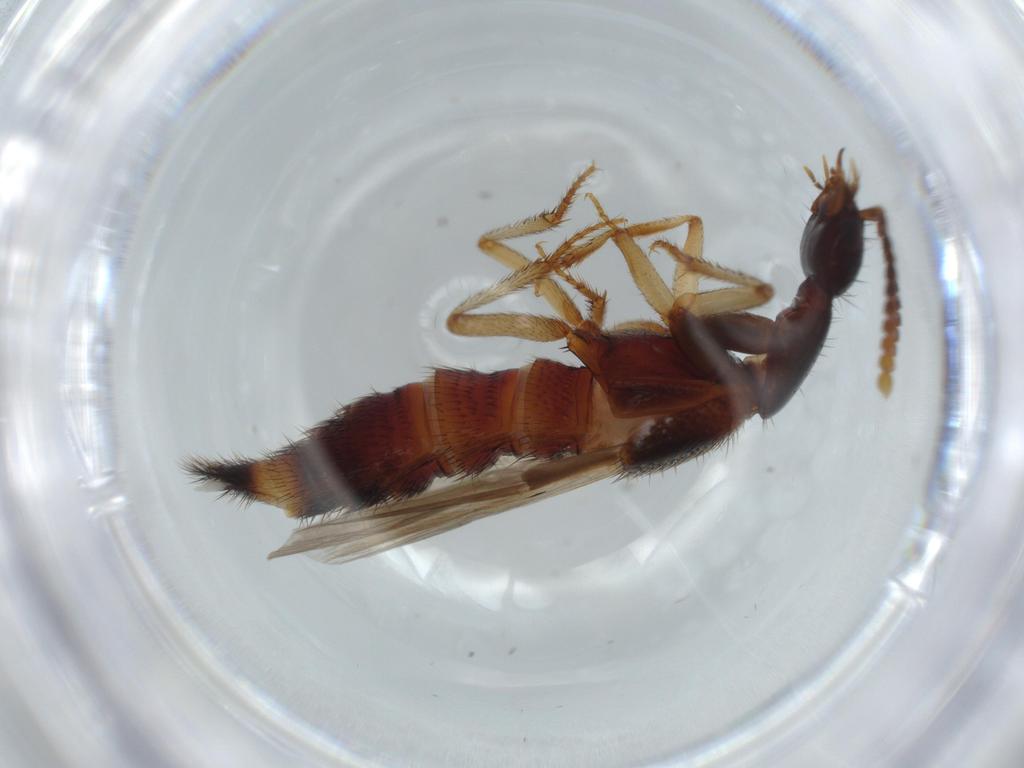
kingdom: Animalia
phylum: Arthropoda
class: Insecta
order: Coleoptera
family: Staphylinidae
